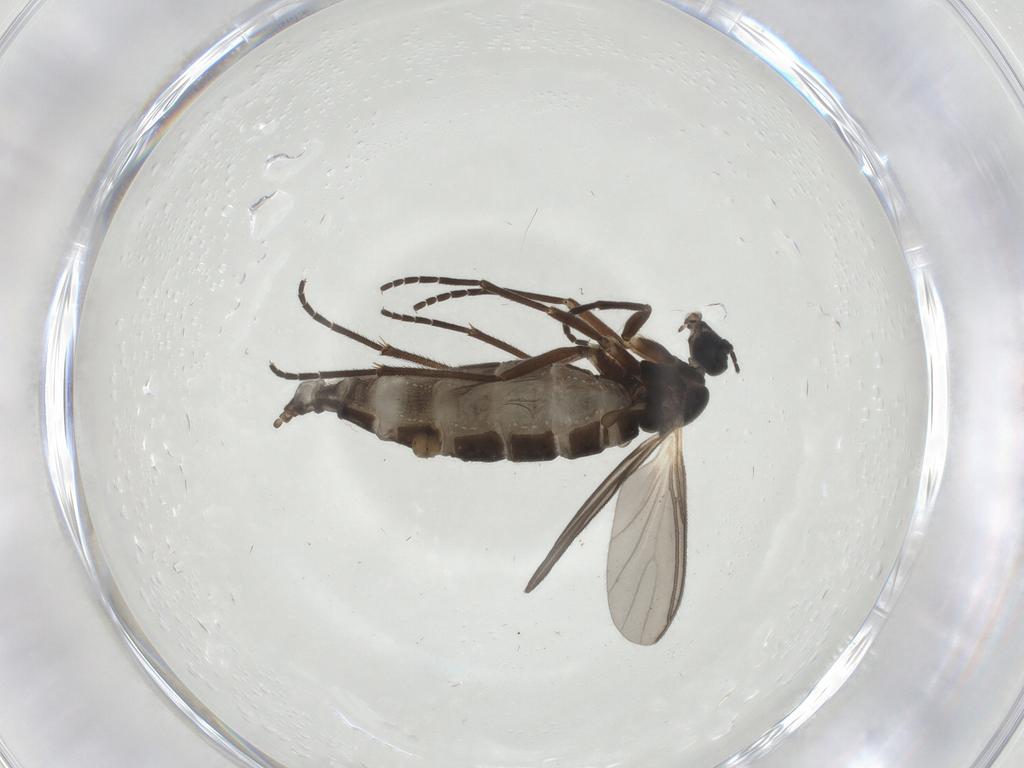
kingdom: Animalia
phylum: Arthropoda
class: Insecta
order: Diptera
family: Sciaridae
